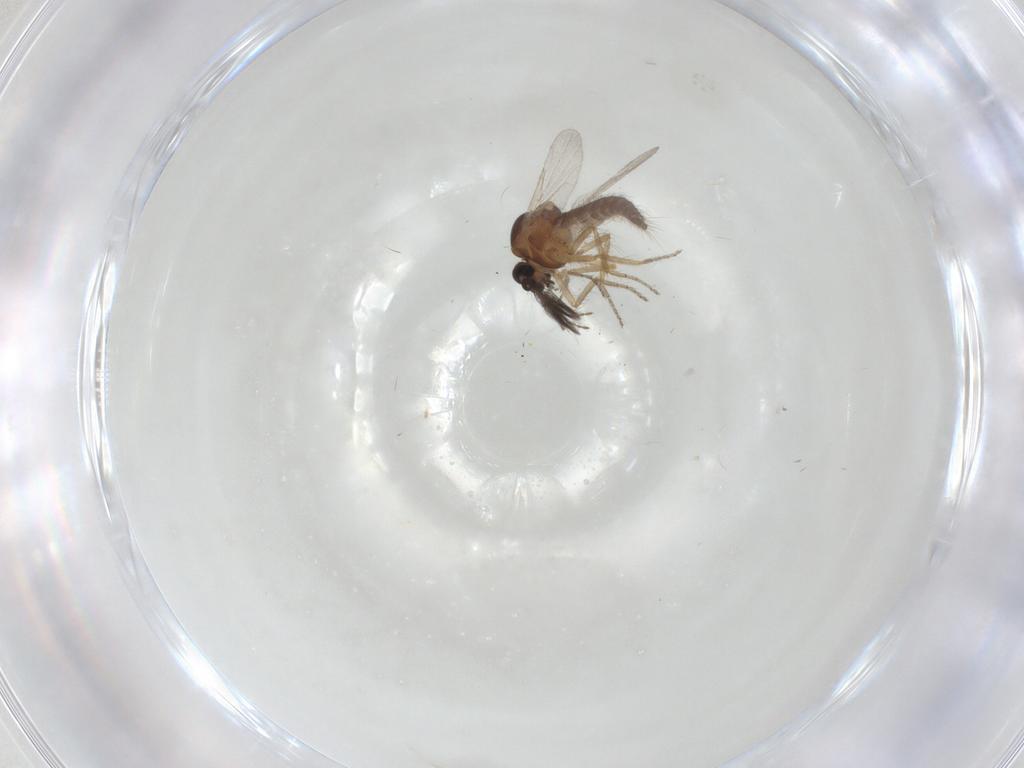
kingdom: Animalia
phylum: Arthropoda
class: Insecta
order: Diptera
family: Ceratopogonidae
